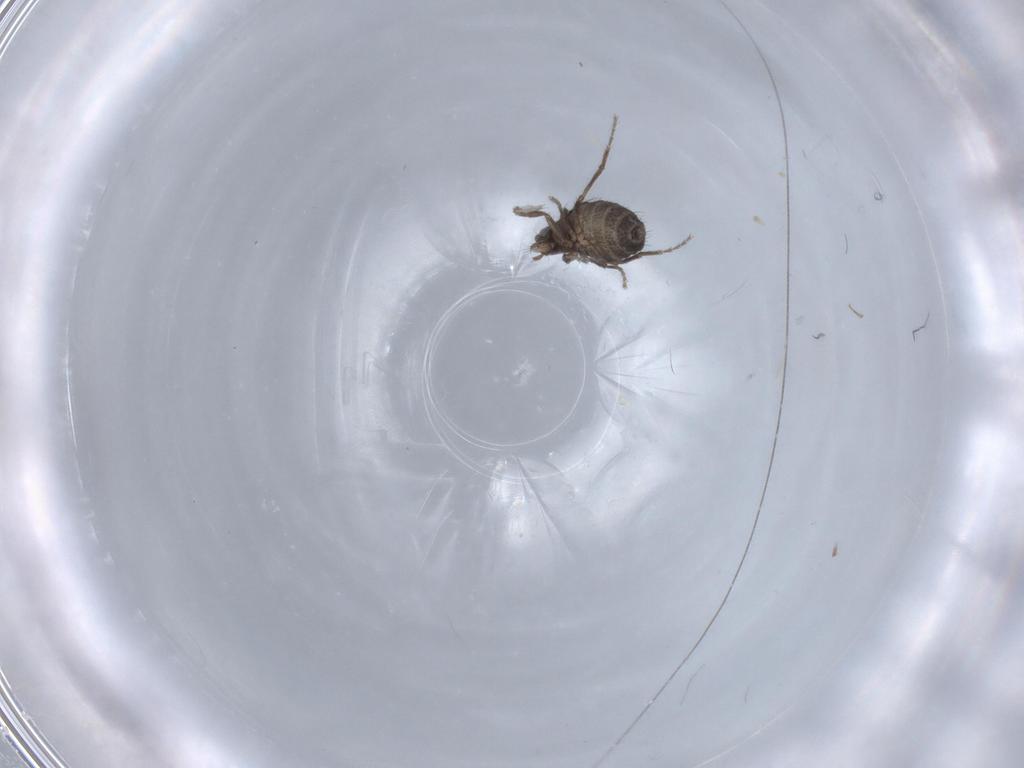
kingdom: Animalia
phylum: Arthropoda
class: Insecta
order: Diptera
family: Phoridae
